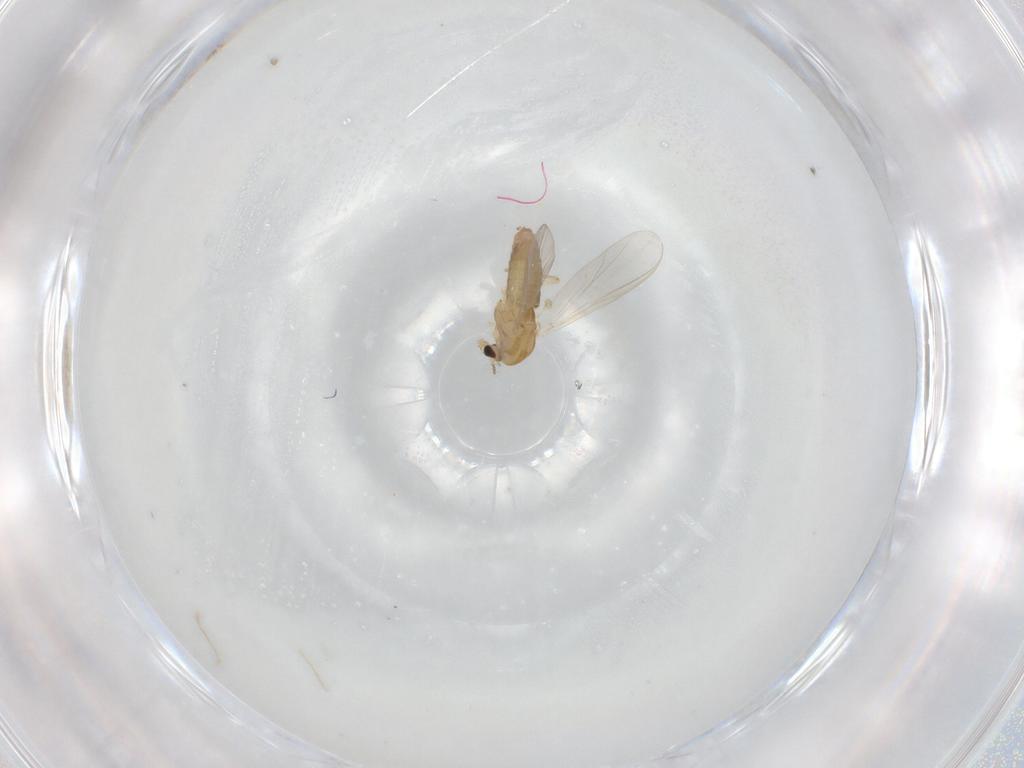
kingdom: Animalia
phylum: Arthropoda
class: Insecta
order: Diptera
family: Chironomidae
